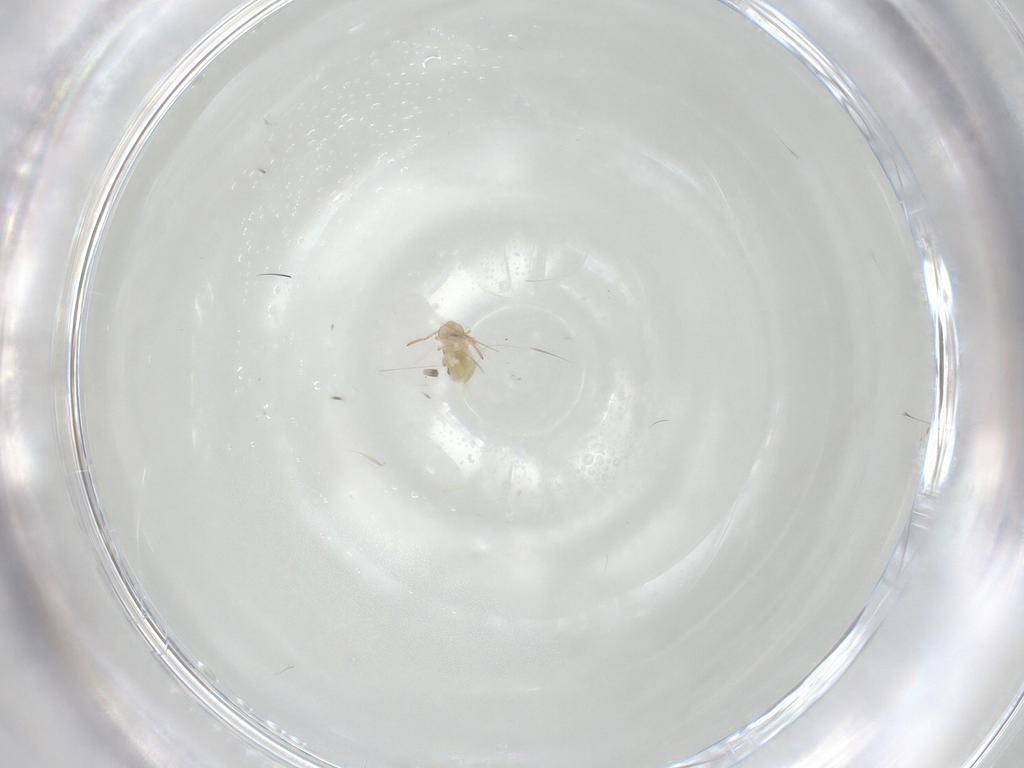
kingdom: Animalia
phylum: Arthropoda
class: Collembola
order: Symphypleona
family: Bourletiellidae
